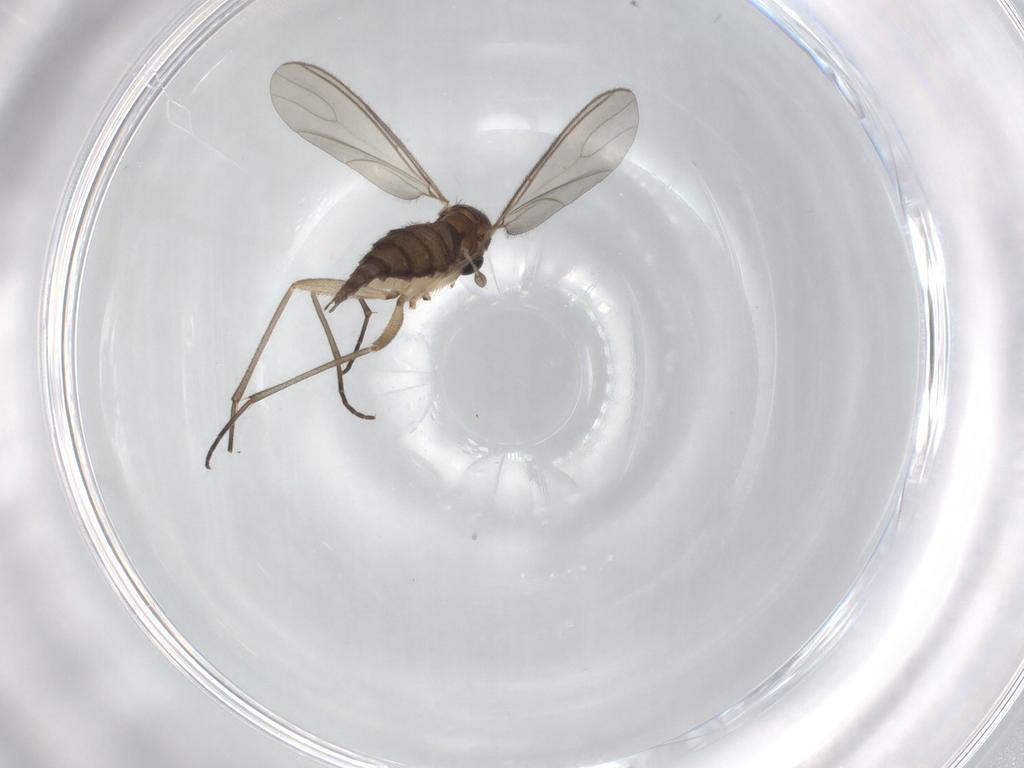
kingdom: Animalia
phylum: Arthropoda
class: Insecta
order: Diptera
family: Sciaridae
